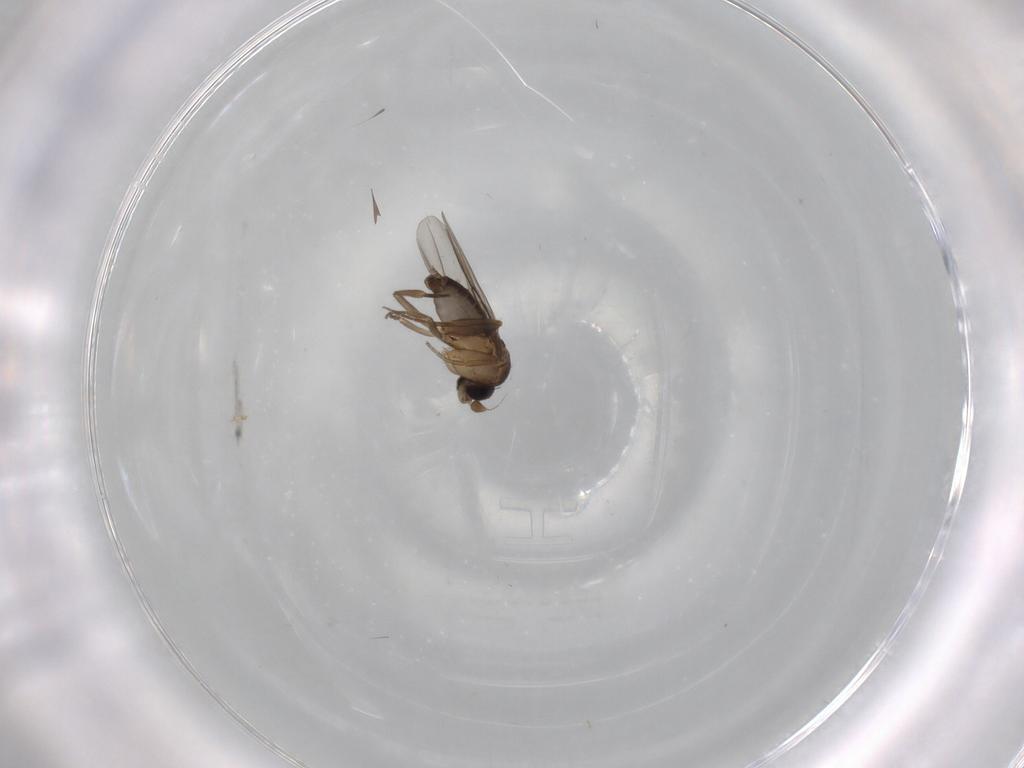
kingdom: Animalia
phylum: Arthropoda
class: Insecta
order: Diptera
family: Phoridae
